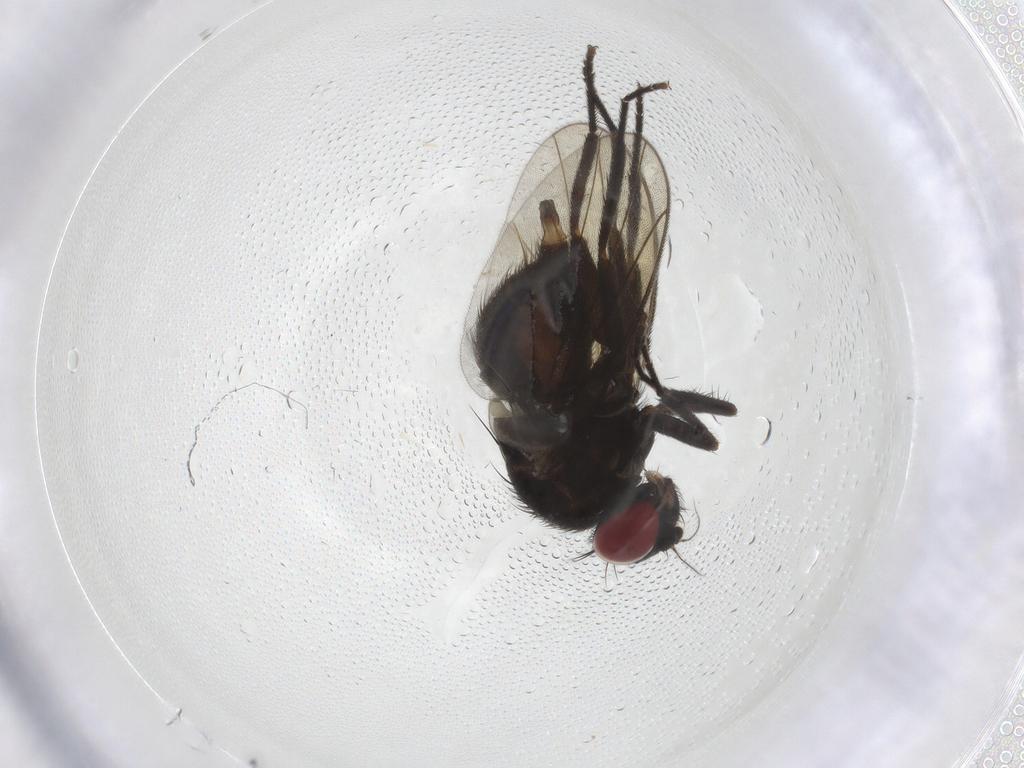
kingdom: Animalia
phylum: Arthropoda
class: Insecta
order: Diptera
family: Agromyzidae
